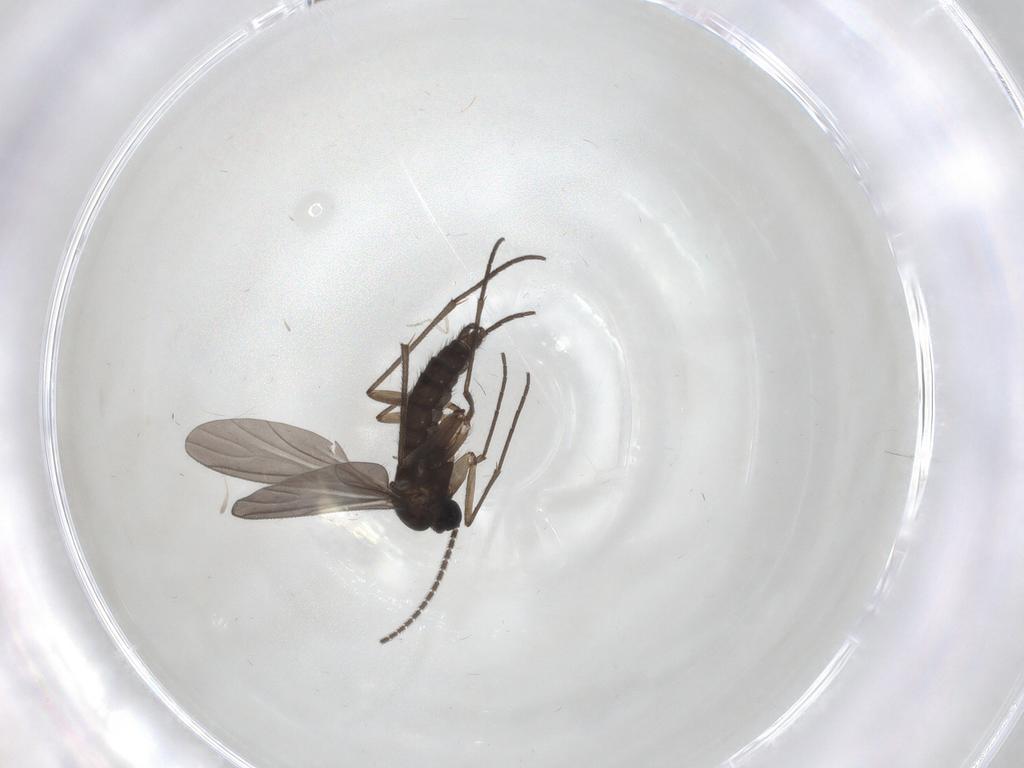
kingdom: Animalia
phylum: Arthropoda
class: Insecta
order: Diptera
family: Sciaridae
